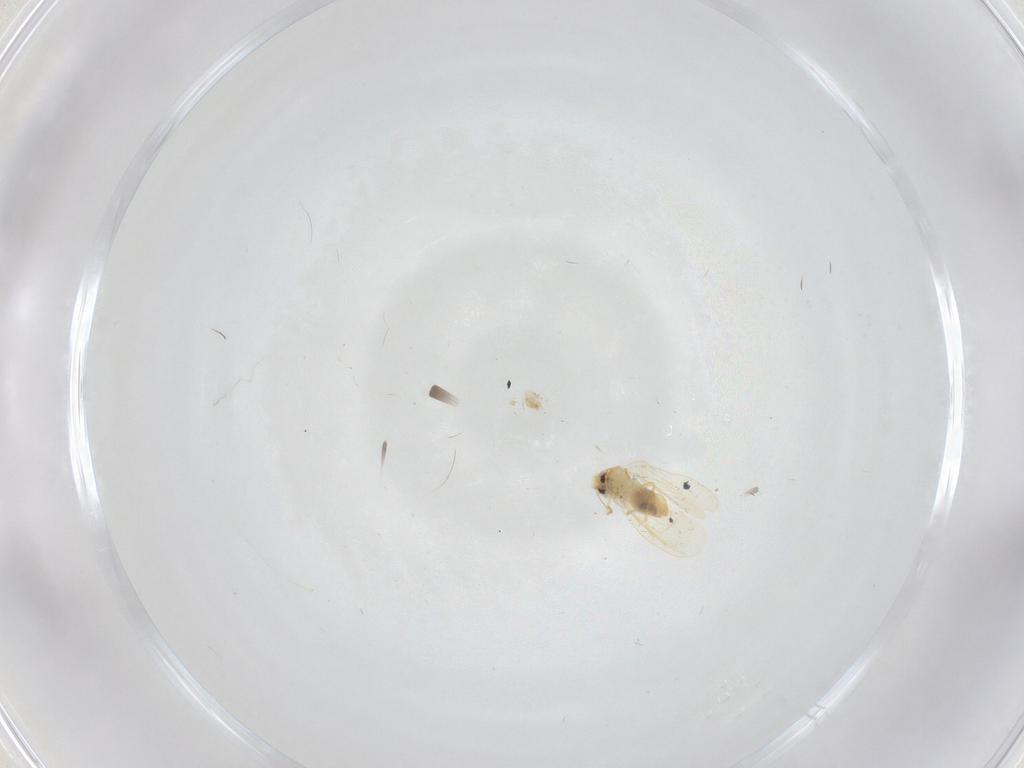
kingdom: Animalia
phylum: Arthropoda
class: Insecta
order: Diptera
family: Cecidomyiidae
